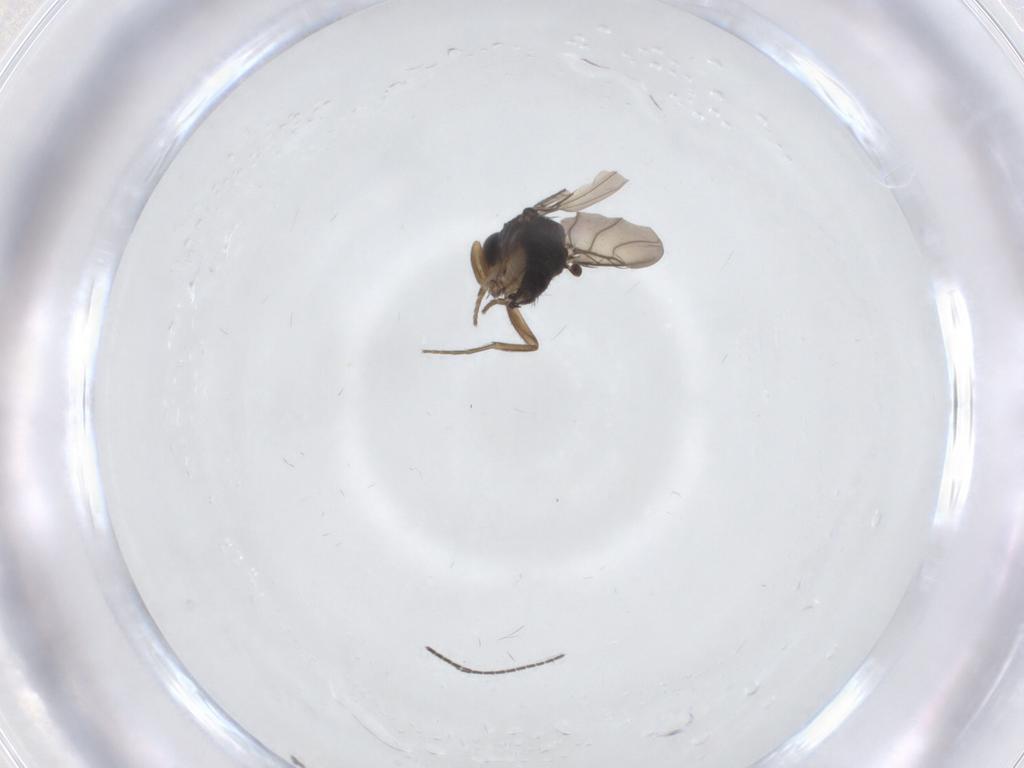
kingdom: Animalia
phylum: Arthropoda
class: Insecta
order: Diptera
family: Phoridae
